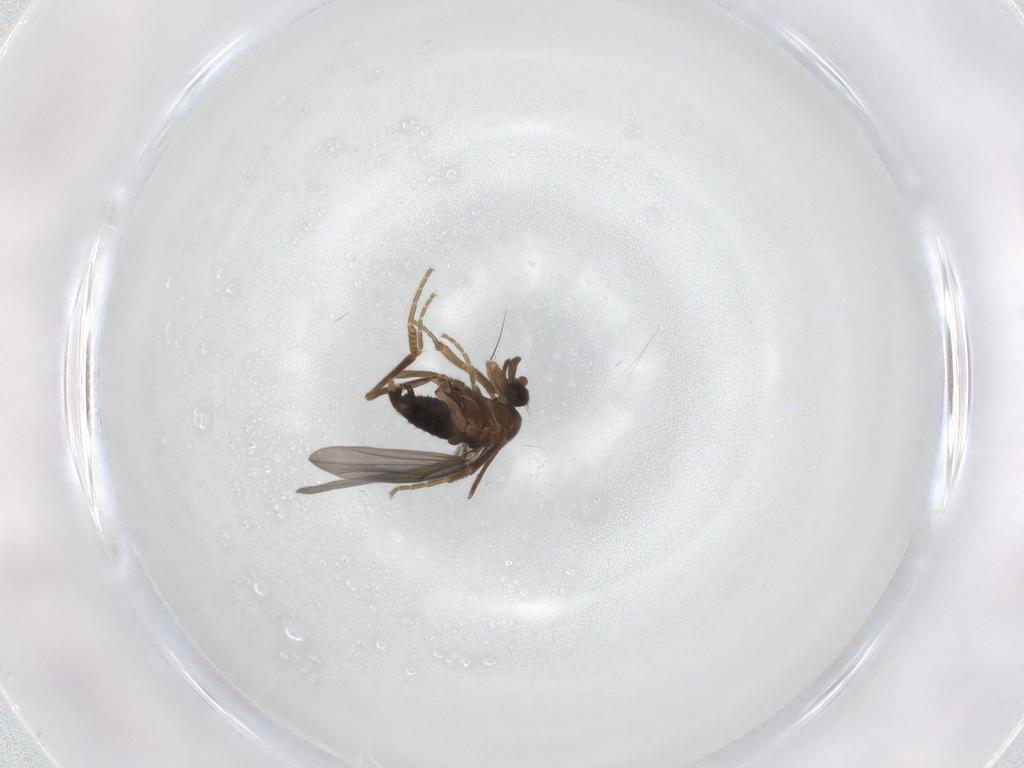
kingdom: Animalia
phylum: Arthropoda
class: Insecta
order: Diptera
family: Phoridae
